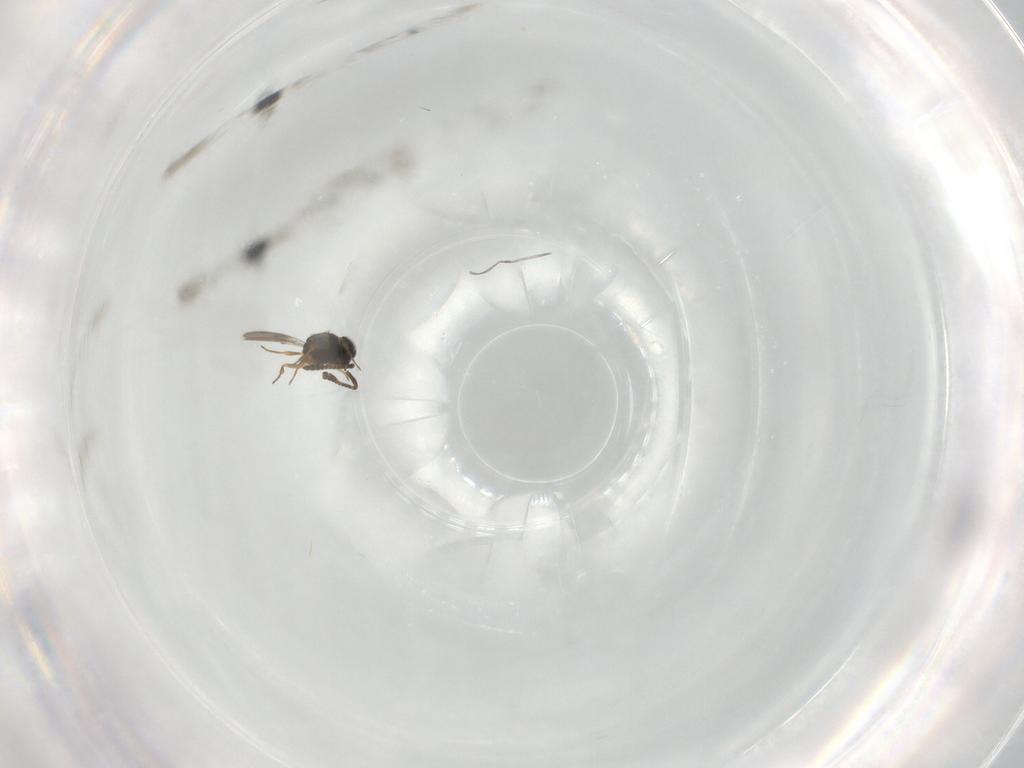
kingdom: Animalia
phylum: Arthropoda
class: Insecta
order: Hymenoptera
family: Scelionidae
